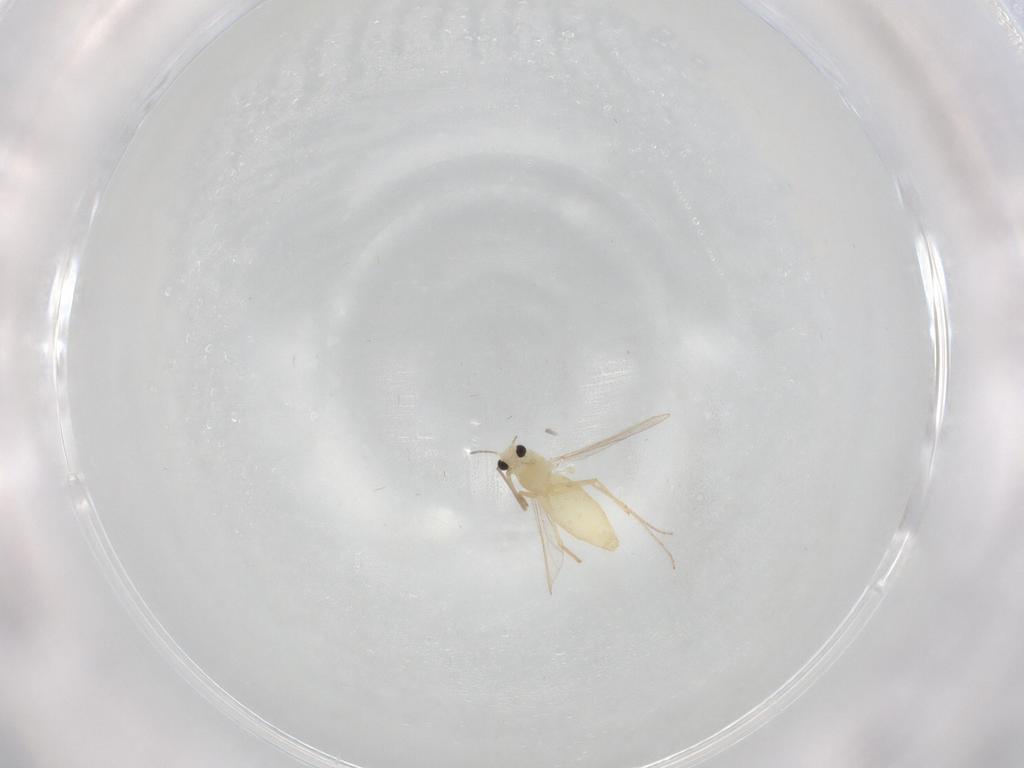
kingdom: Animalia
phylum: Arthropoda
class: Insecta
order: Diptera
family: Chironomidae
